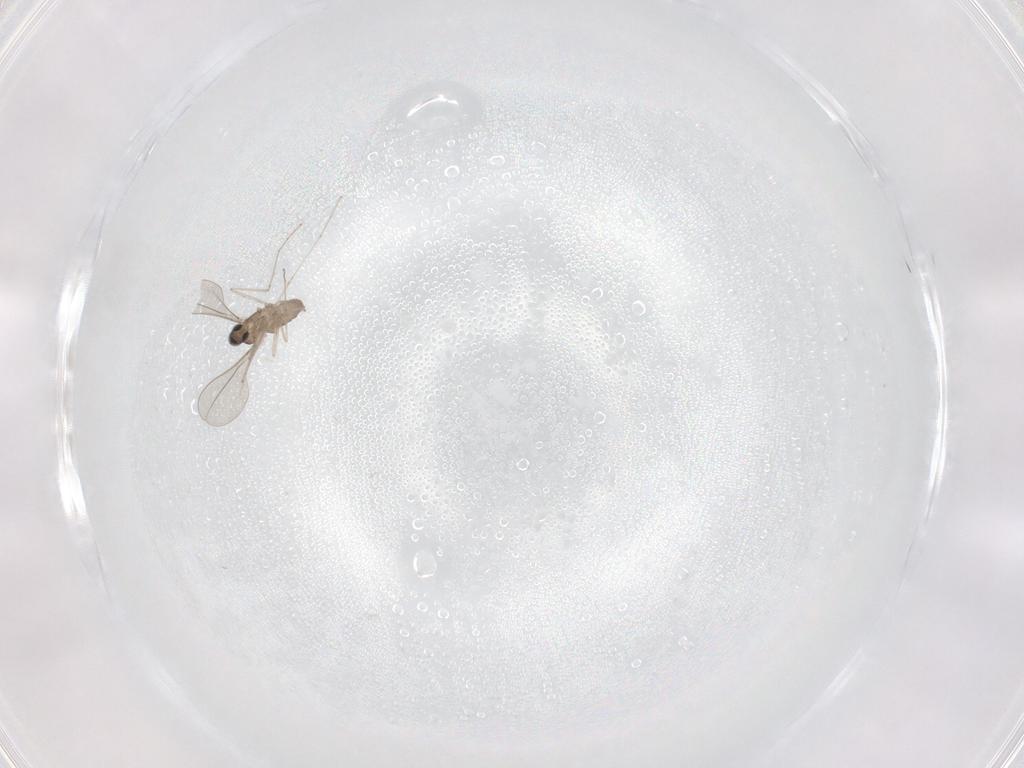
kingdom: Animalia
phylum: Arthropoda
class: Insecta
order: Diptera
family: Cecidomyiidae
